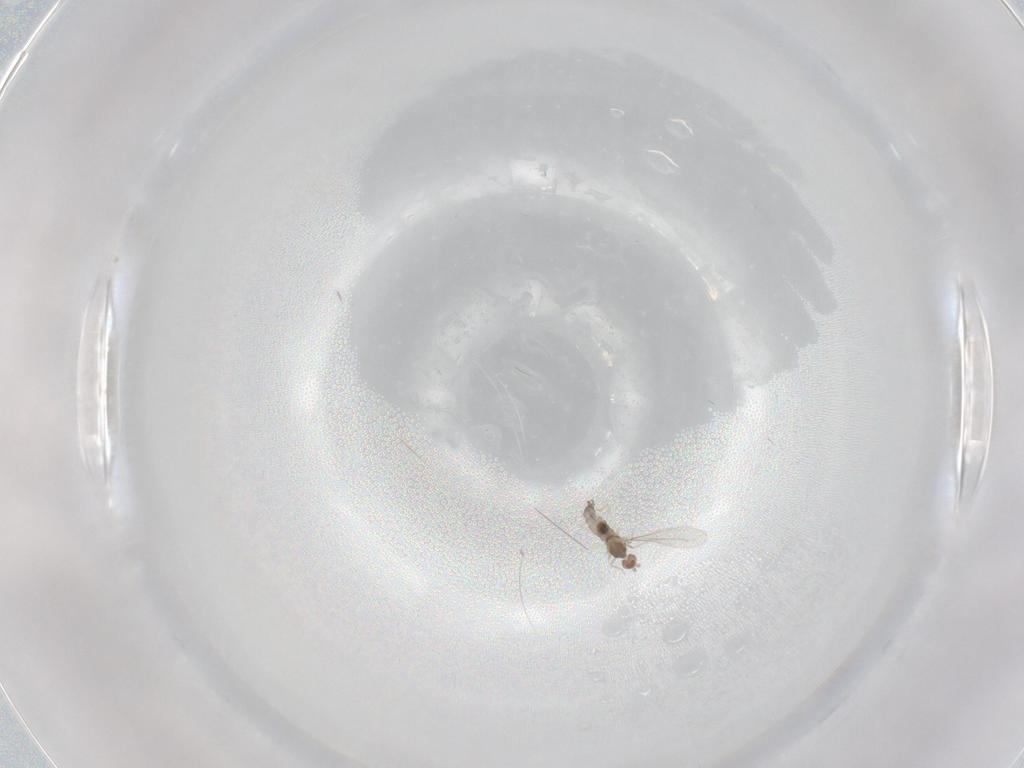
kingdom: Animalia
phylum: Arthropoda
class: Insecta
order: Diptera
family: Cecidomyiidae
